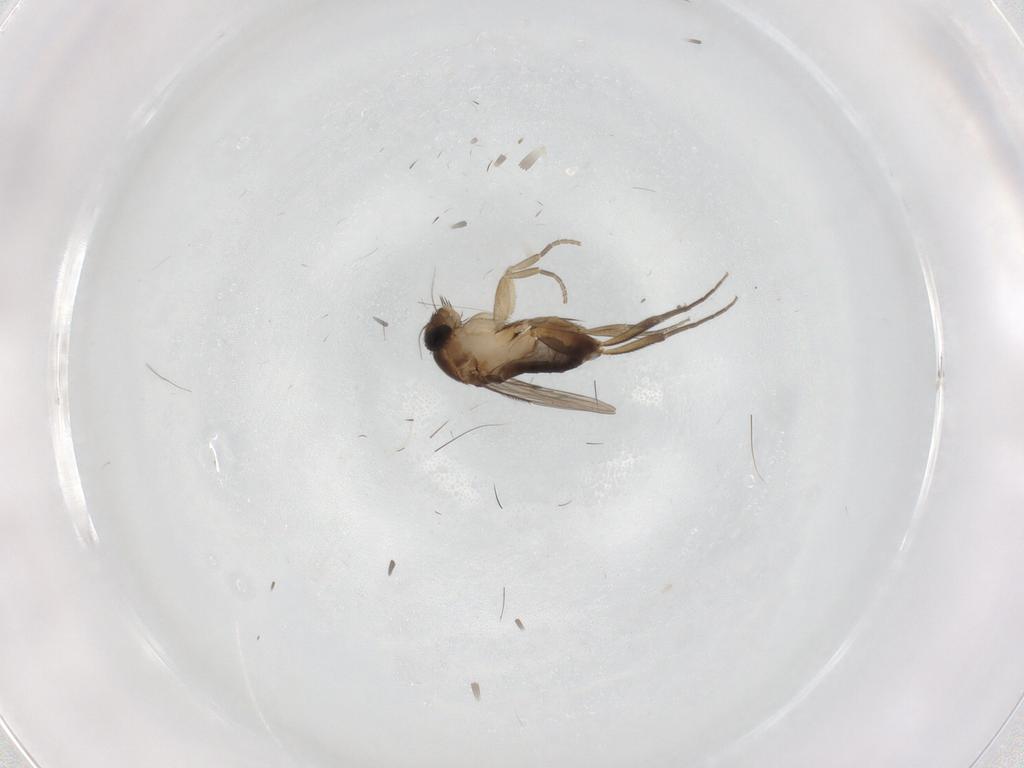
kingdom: Animalia
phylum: Arthropoda
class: Insecta
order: Diptera
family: Phoridae
